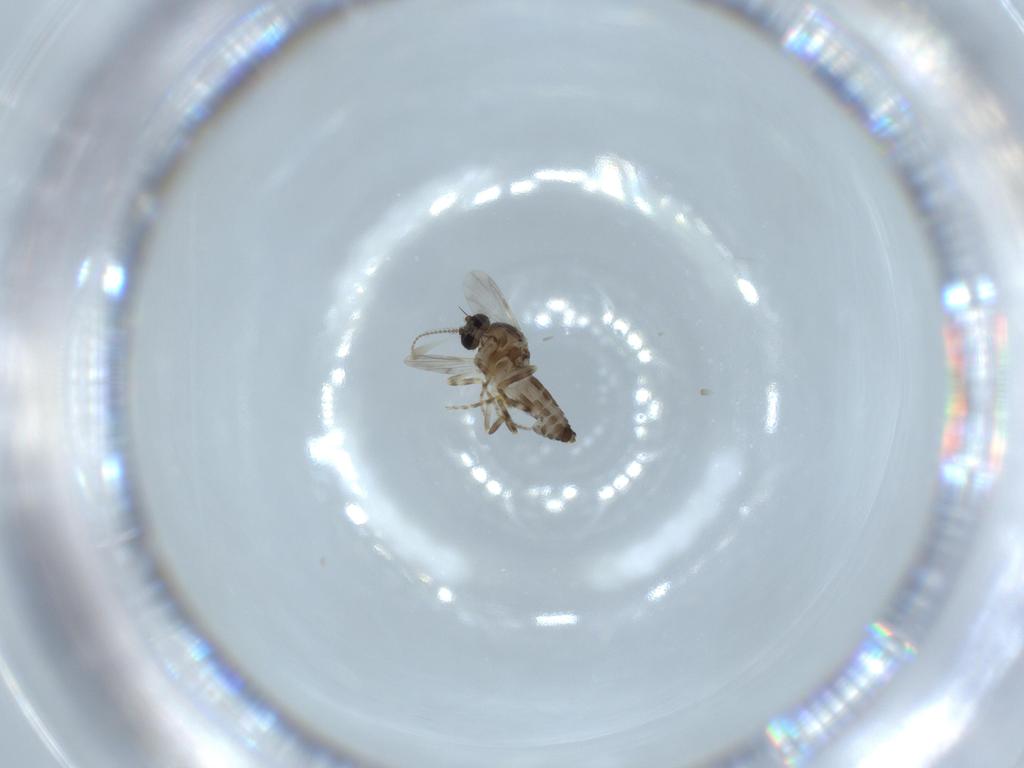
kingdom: Animalia
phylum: Arthropoda
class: Insecta
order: Diptera
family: Ceratopogonidae
